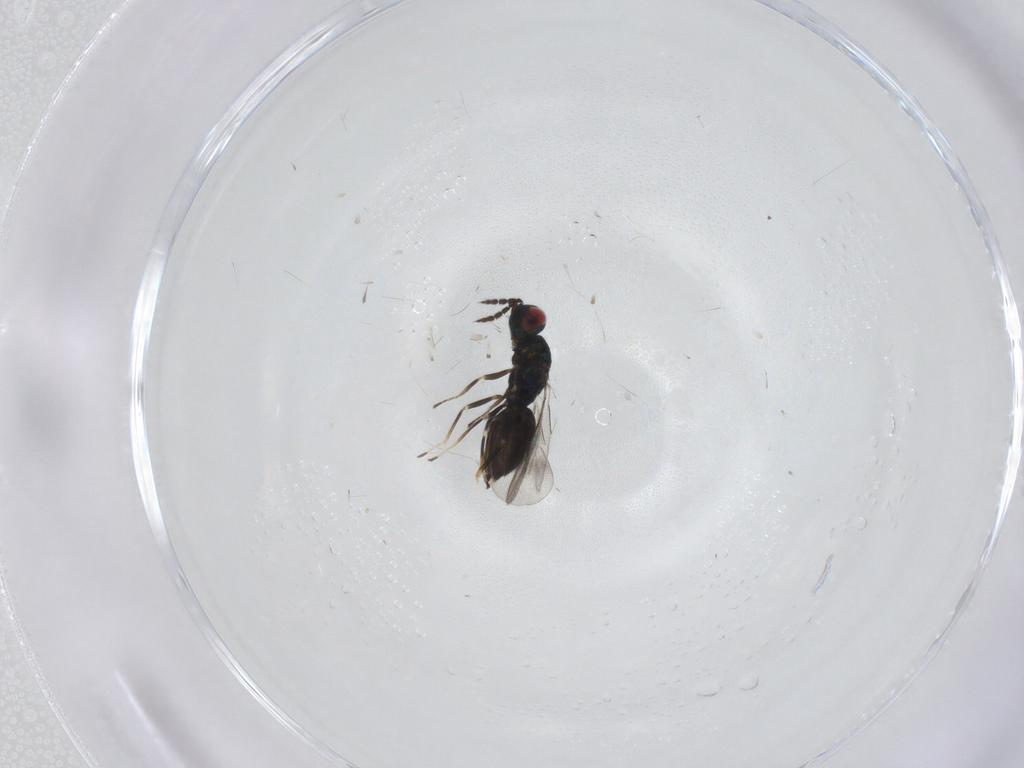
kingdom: Animalia
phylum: Arthropoda
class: Insecta
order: Hymenoptera
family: Eulophidae
